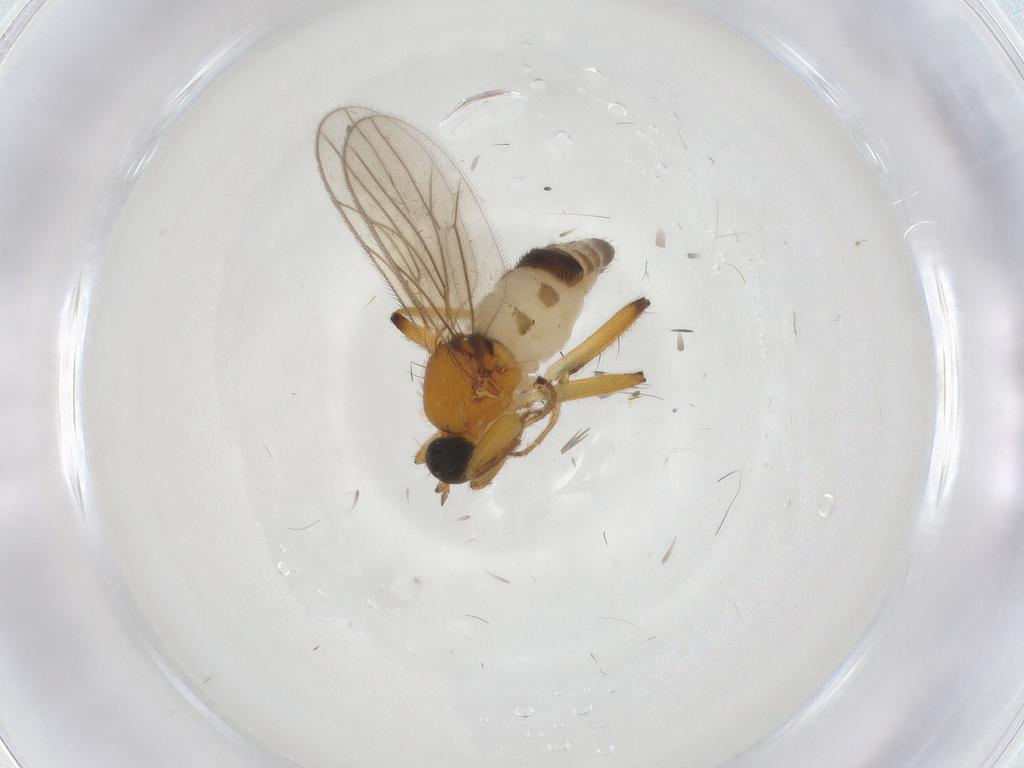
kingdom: Animalia
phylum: Arthropoda
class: Insecta
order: Diptera
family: Hybotidae
